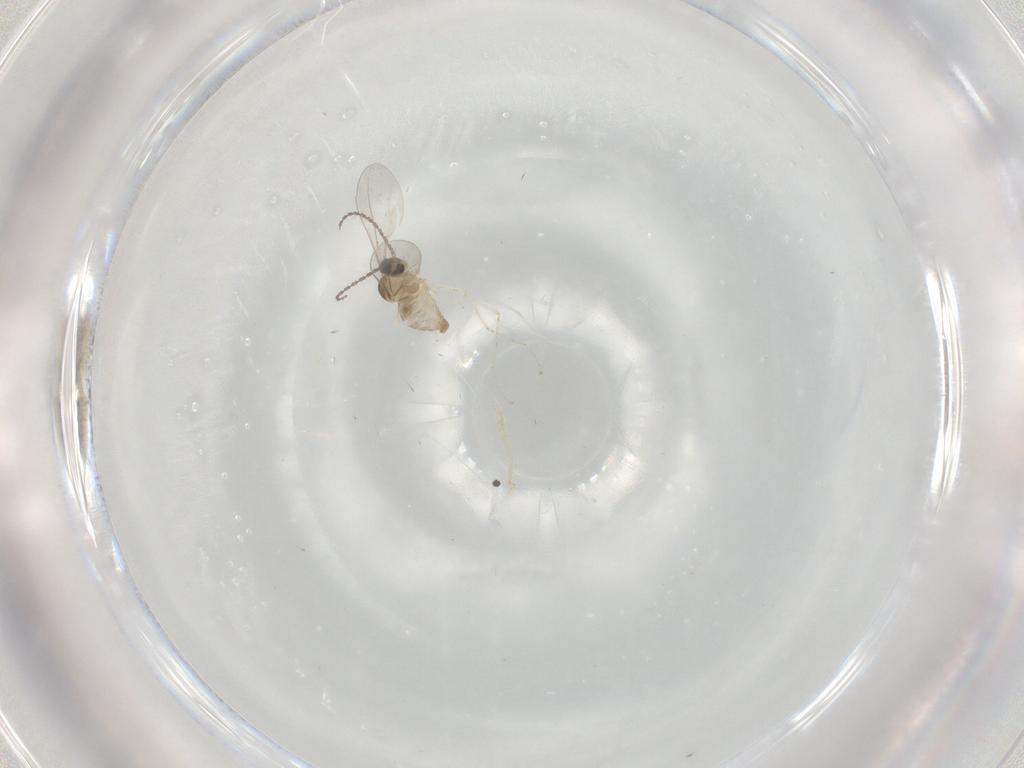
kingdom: Animalia
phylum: Arthropoda
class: Insecta
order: Diptera
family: Cecidomyiidae
